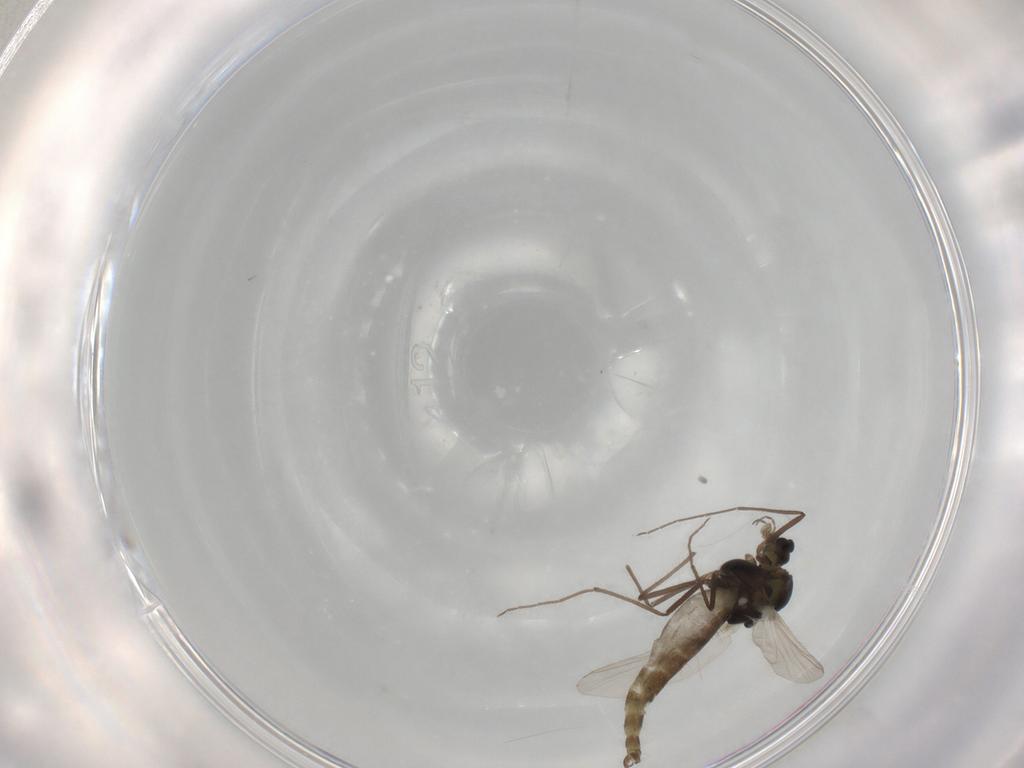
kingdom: Animalia
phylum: Arthropoda
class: Insecta
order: Diptera
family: Chironomidae
